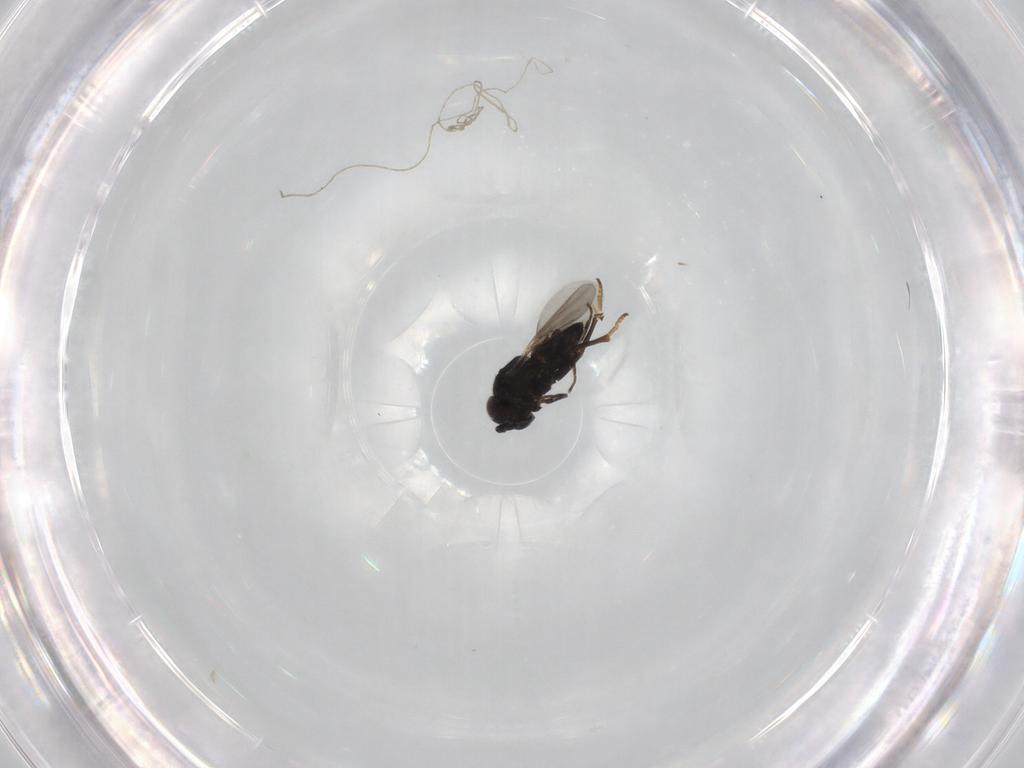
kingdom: Animalia
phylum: Arthropoda
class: Insecta
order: Hymenoptera
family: Encyrtidae
